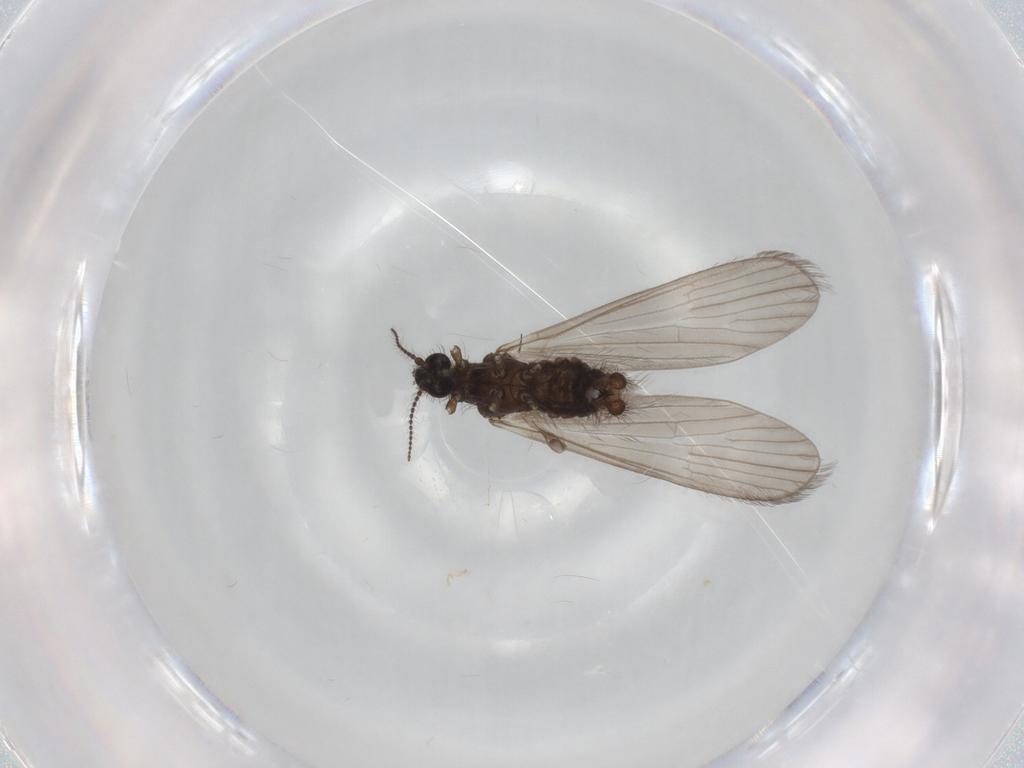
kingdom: Animalia
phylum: Arthropoda
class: Insecta
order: Diptera
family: Limoniidae
